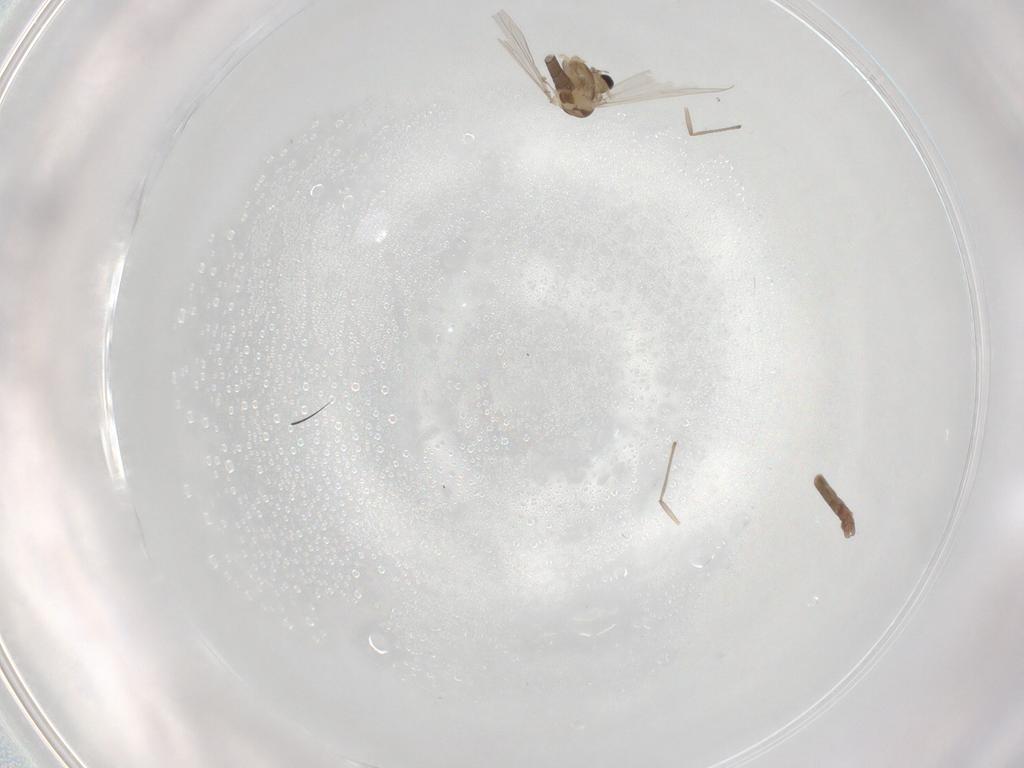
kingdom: Animalia
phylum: Arthropoda
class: Insecta
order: Diptera
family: Chironomidae
